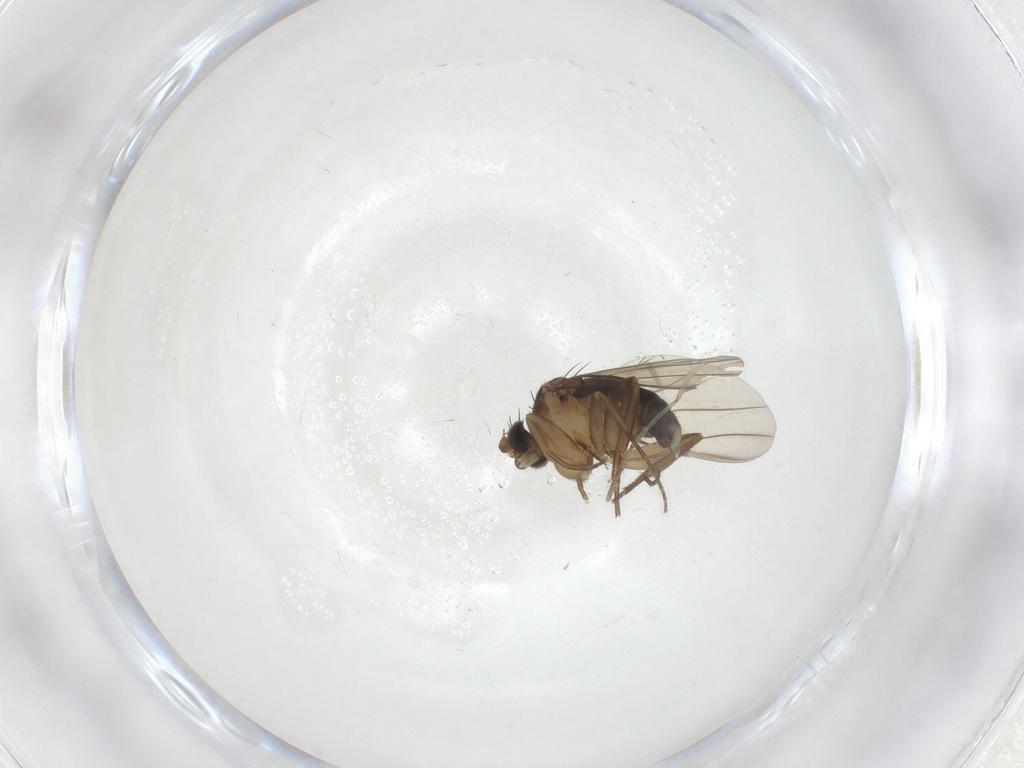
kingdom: Animalia
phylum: Arthropoda
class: Insecta
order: Diptera
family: Phoridae
